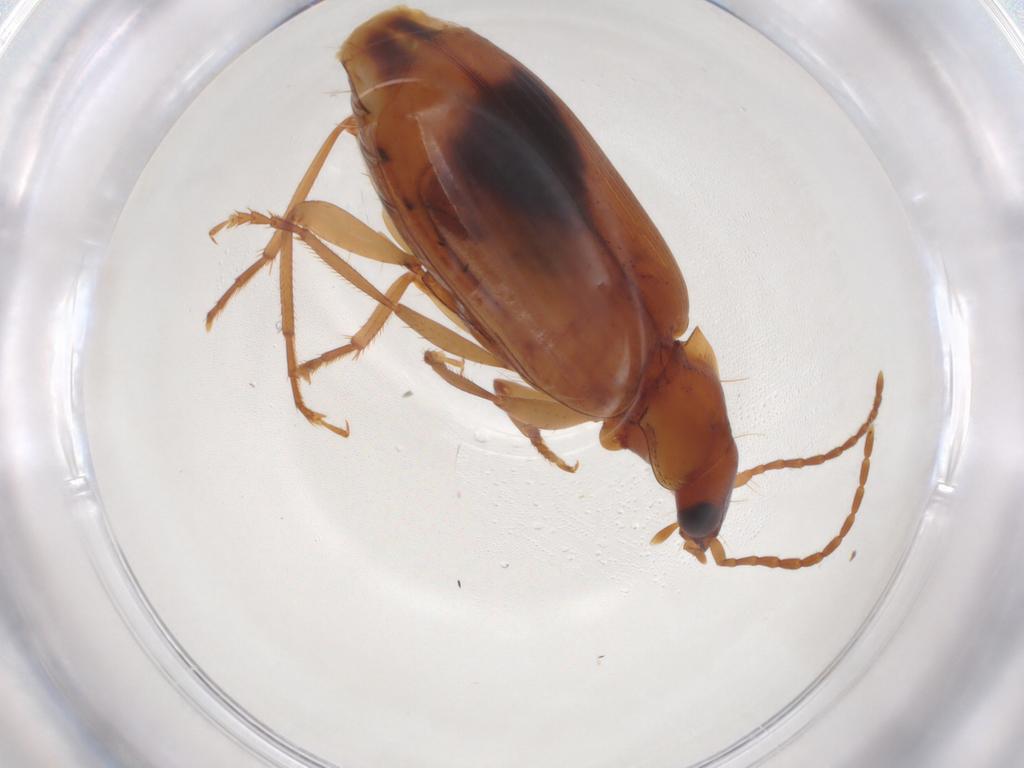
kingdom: Animalia
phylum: Arthropoda
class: Insecta
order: Coleoptera
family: Carabidae
